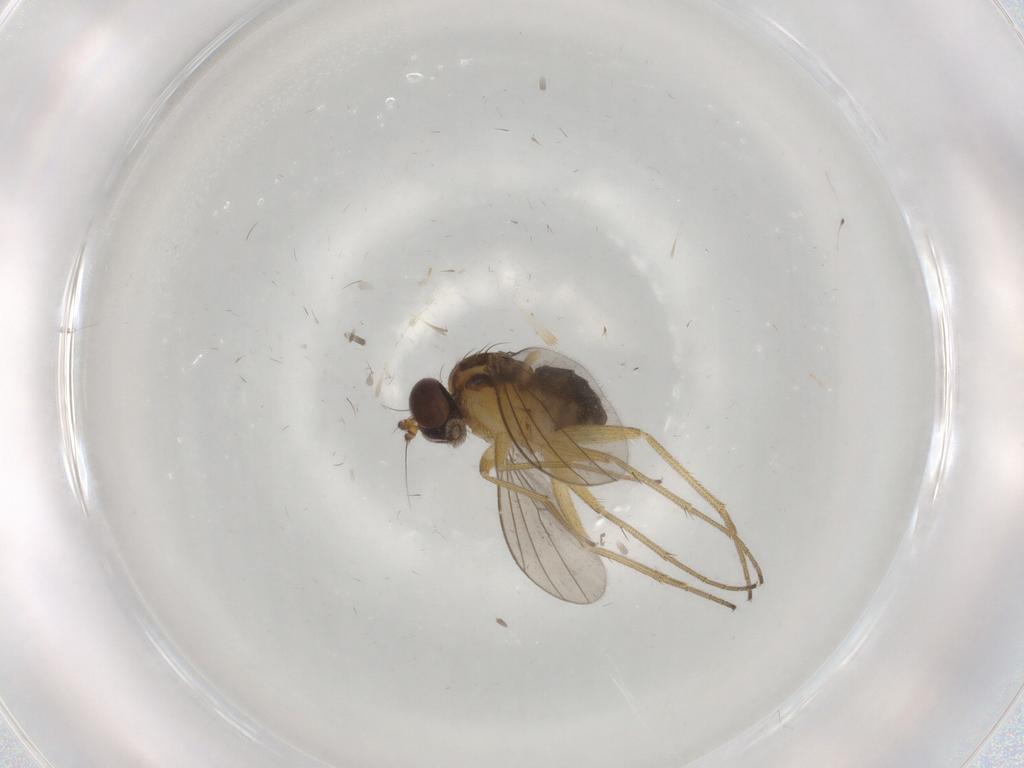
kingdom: Animalia
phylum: Arthropoda
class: Insecta
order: Diptera
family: Dolichopodidae
